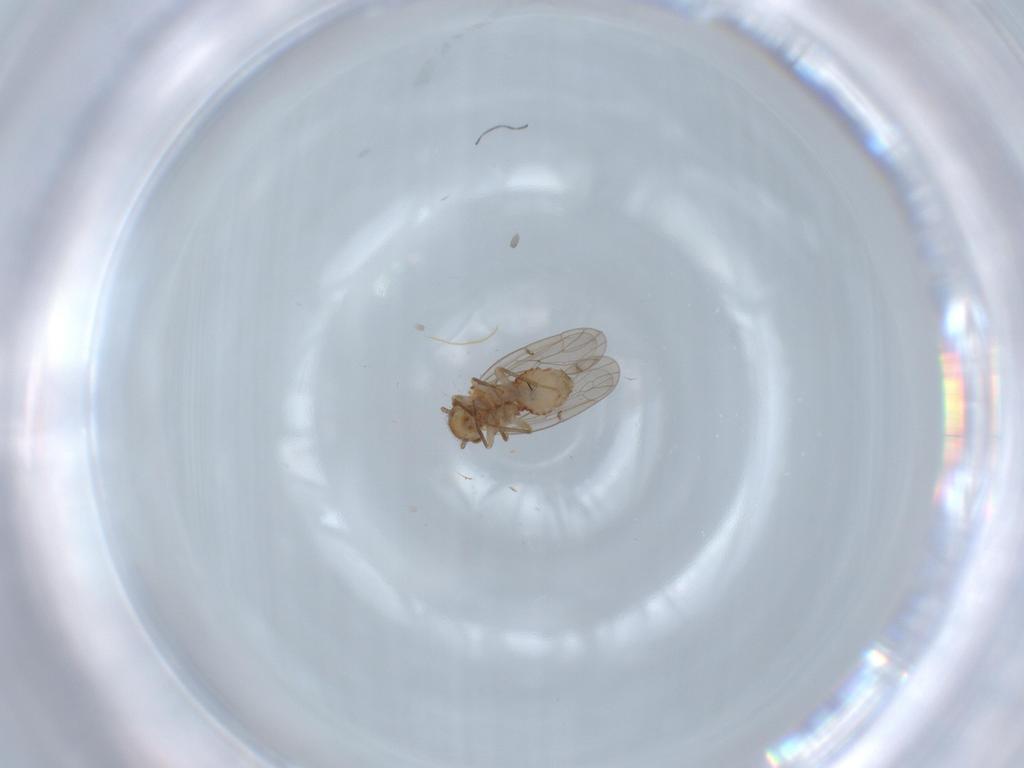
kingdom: Animalia
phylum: Arthropoda
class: Insecta
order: Psocodea
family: Ectopsocidae
